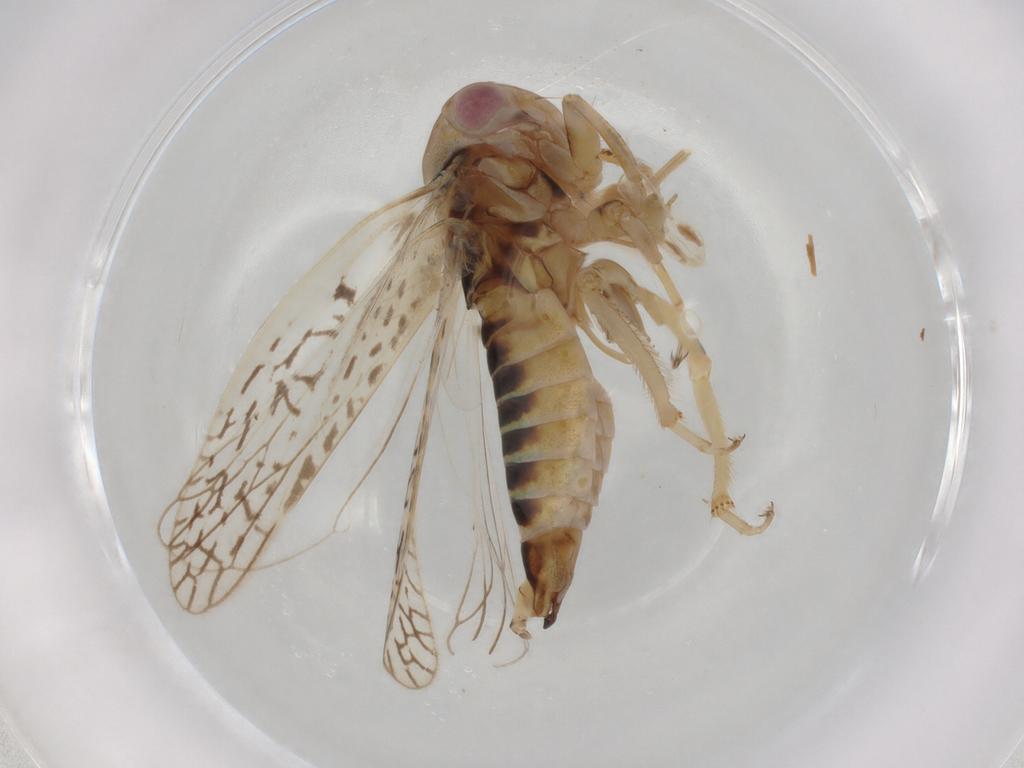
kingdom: Animalia
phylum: Arthropoda
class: Insecta
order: Hemiptera
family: Cicadellidae
